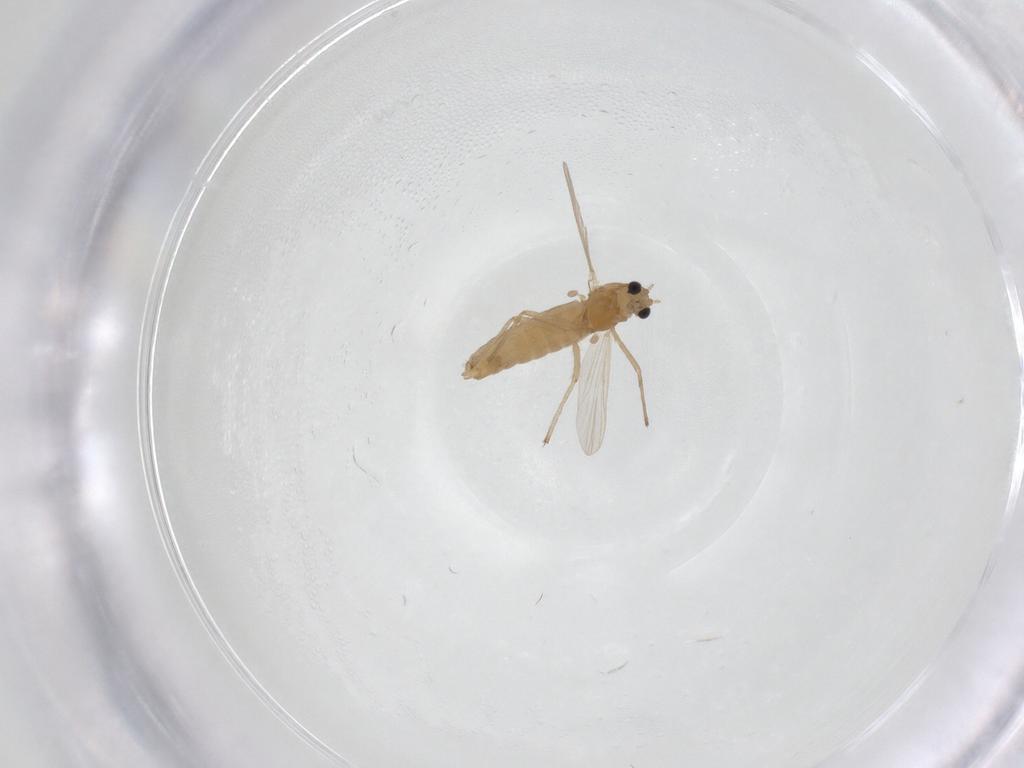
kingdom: Animalia
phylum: Arthropoda
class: Insecta
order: Diptera
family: Chironomidae
